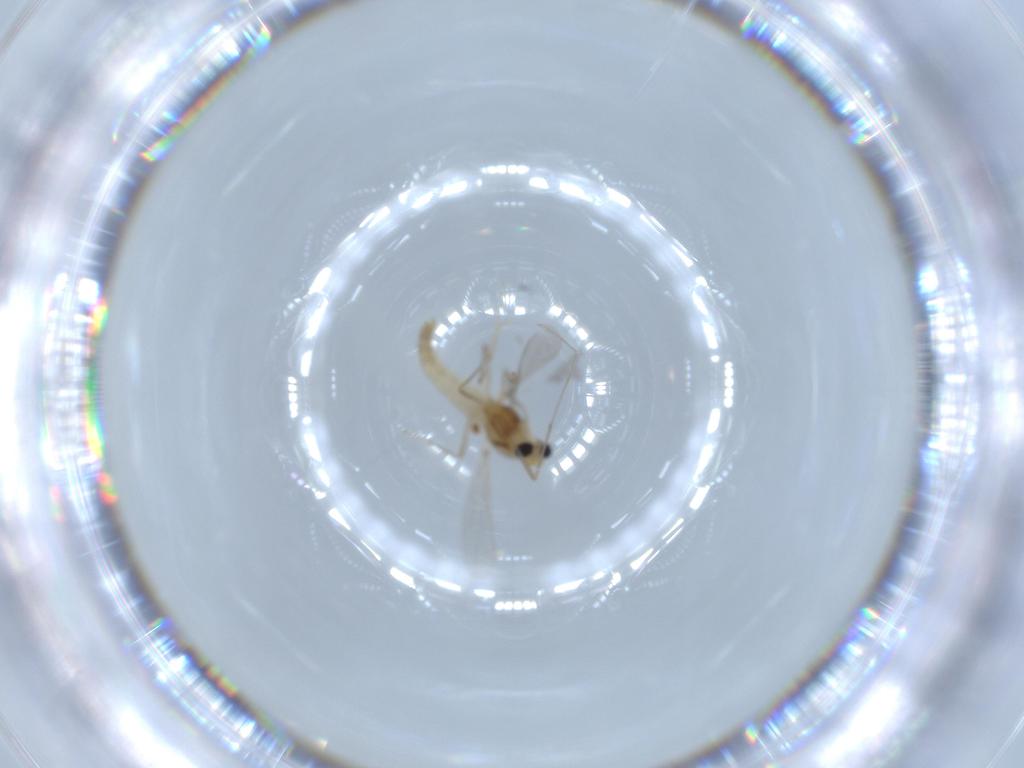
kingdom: Animalia
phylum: Arthropoda
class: Insecta
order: Diptera
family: Chironomidae
